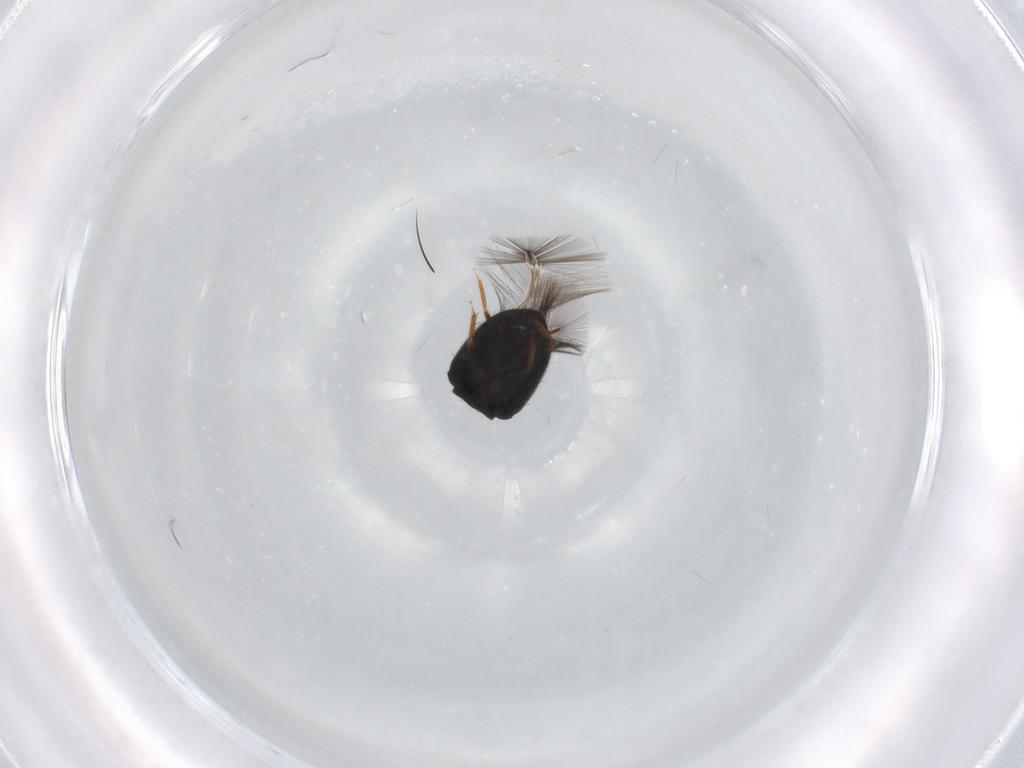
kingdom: Animalia
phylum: Arthropoda
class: Insecta
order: Coleoptera
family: Ptiliidae
